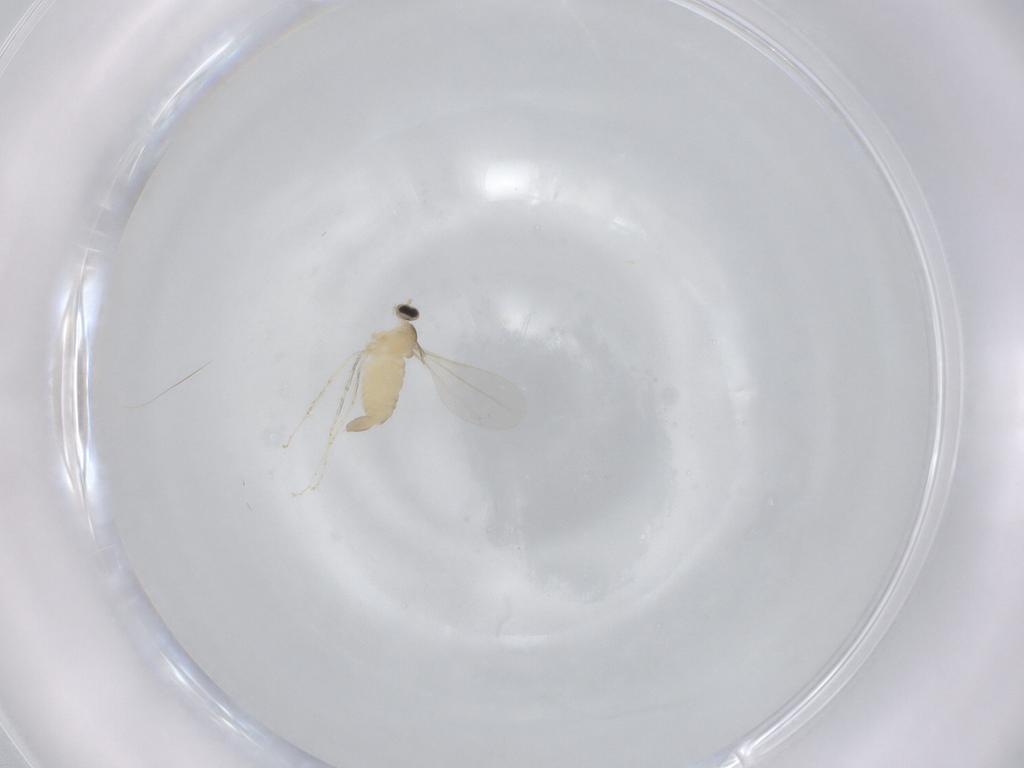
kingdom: Animalia
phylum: Arthropoda
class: Insecta
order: Diptera
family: Cecidomyiidae
